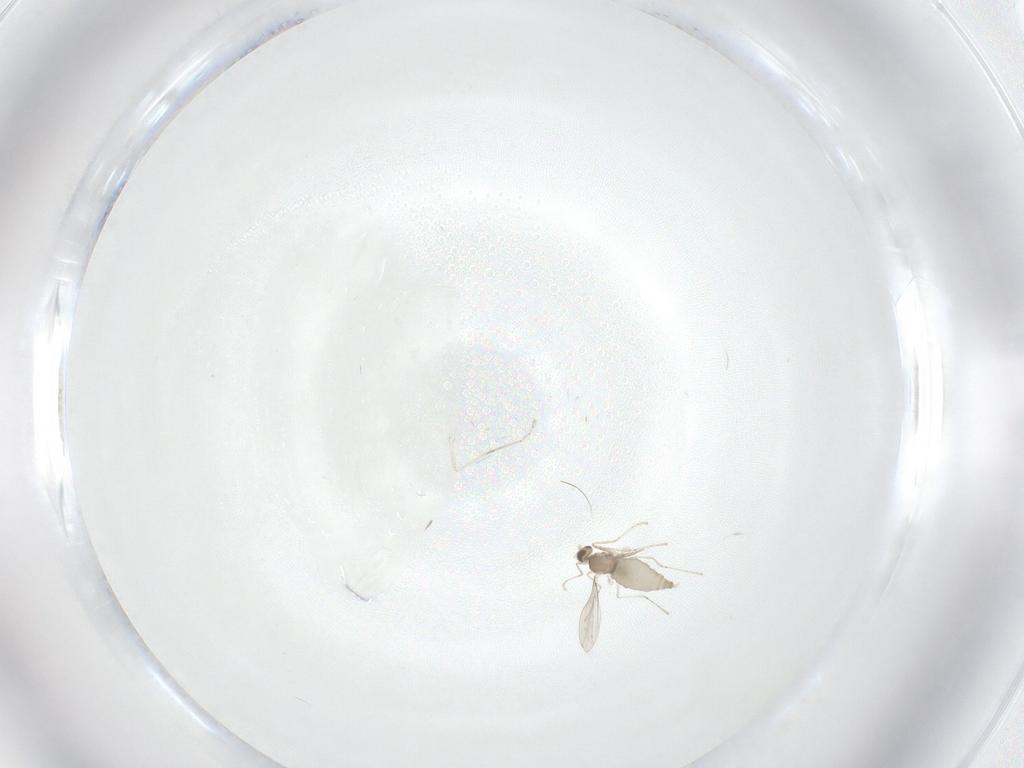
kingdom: Animalia
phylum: Arthropoda
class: Insecta
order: Diptera
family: Cecidomyiidae
